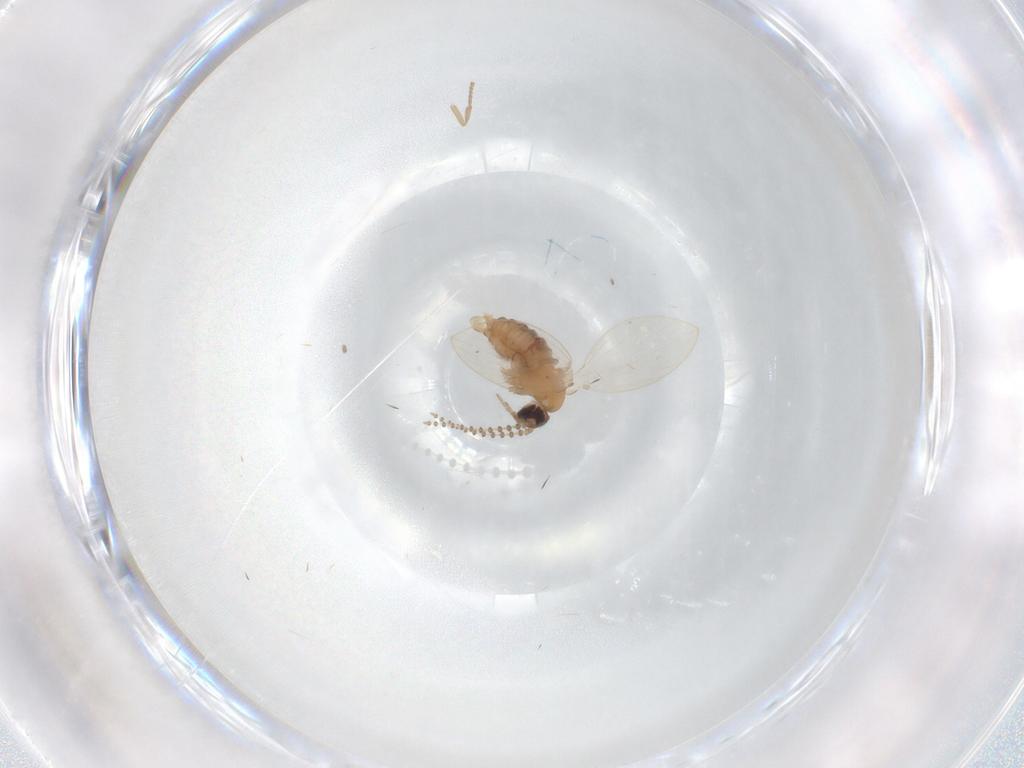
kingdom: Animalia
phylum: Arthropoda
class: Insecta
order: Diptera
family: Psychodidae
